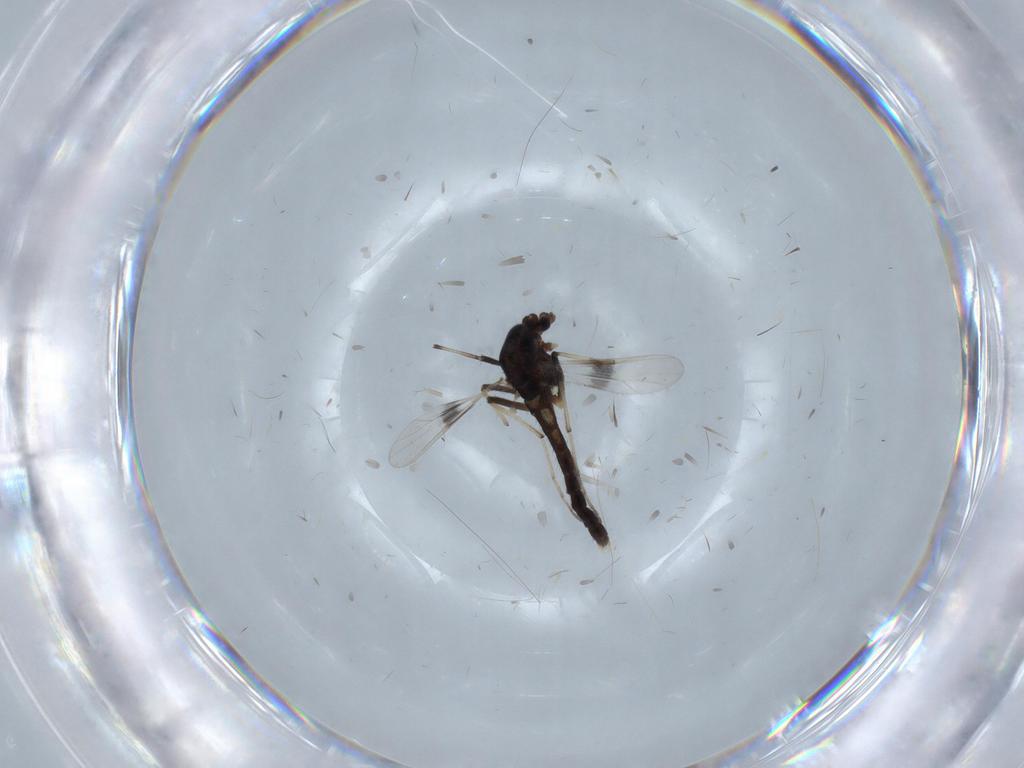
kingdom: Animalia
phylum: Arthropoda
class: Insecta
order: Diptera
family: Chironomidae
